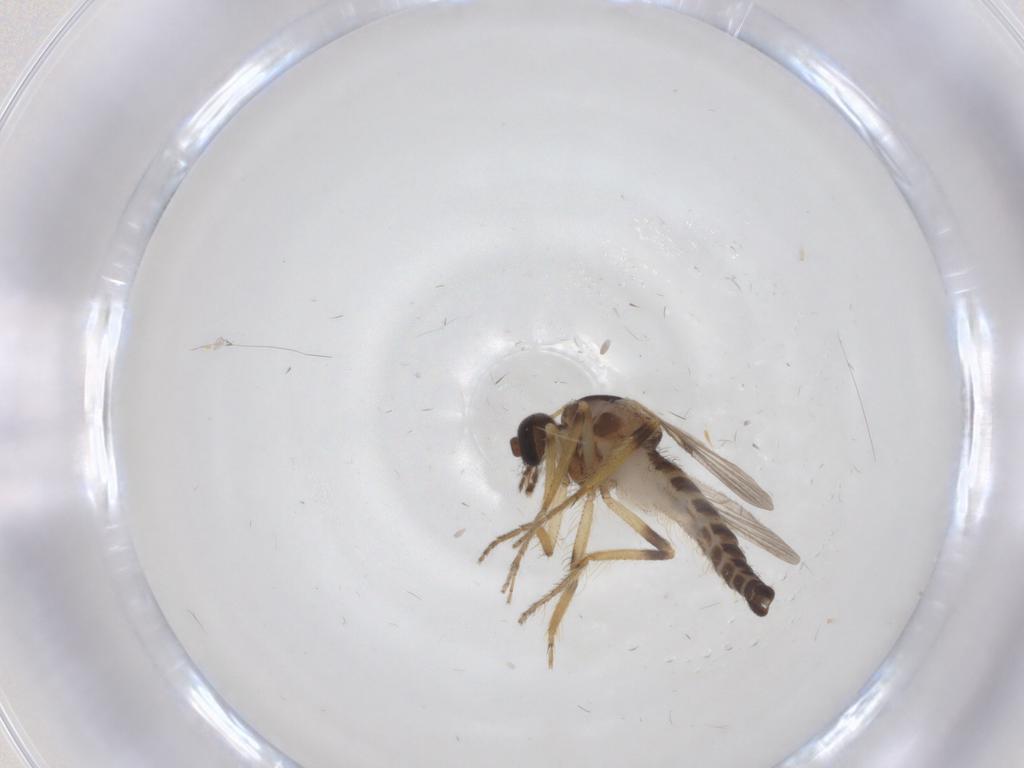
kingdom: Animalia
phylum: Arthropoda
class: Insecta
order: Diptera
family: Ceratopogonidae
